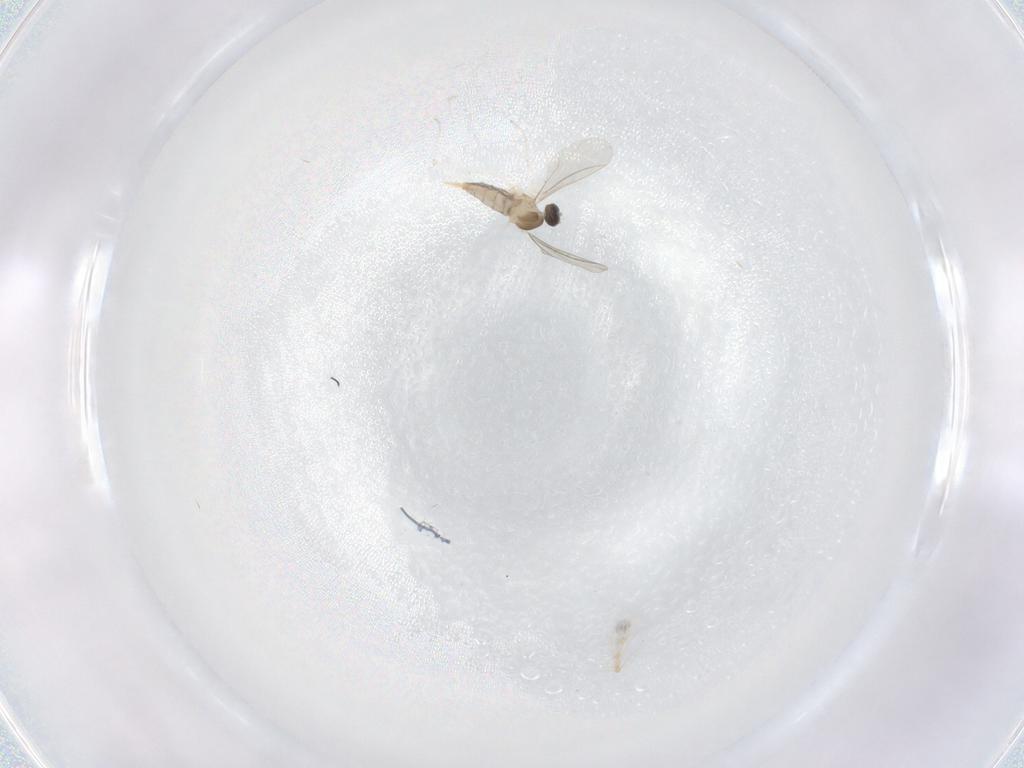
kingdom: Animalia
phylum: Arthropoda
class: Insecta
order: Diptera
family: Chironomidae
